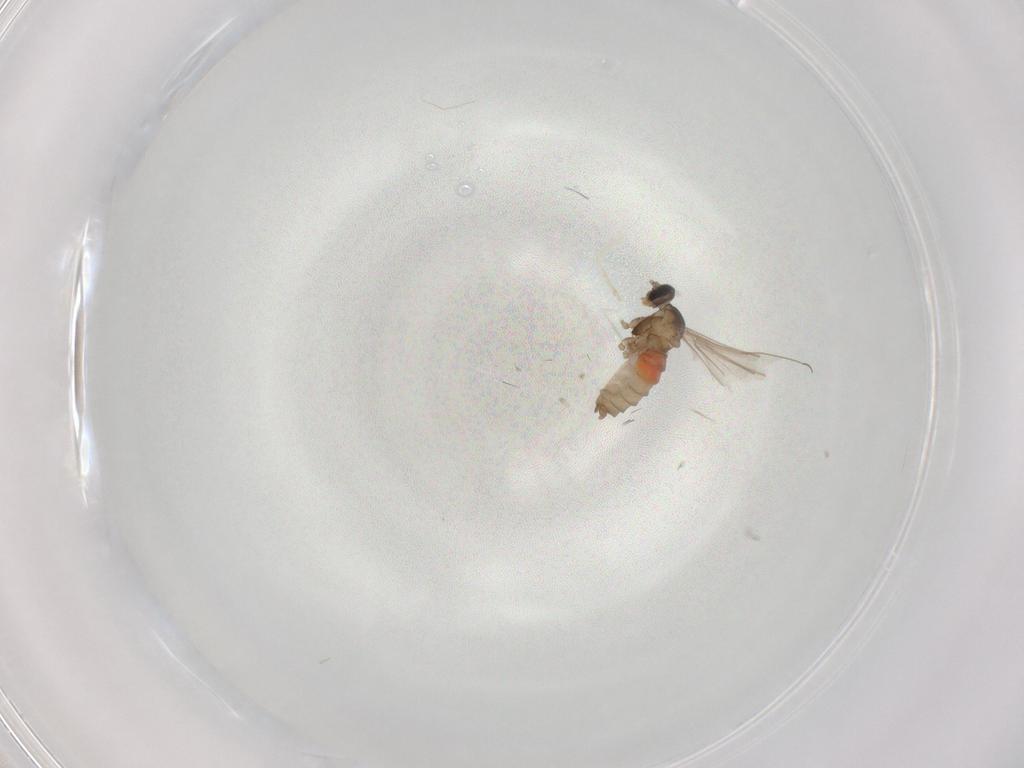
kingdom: Animalia
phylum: Arthropoda
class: Insecta
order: Diptera
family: Cecidomyiidae
